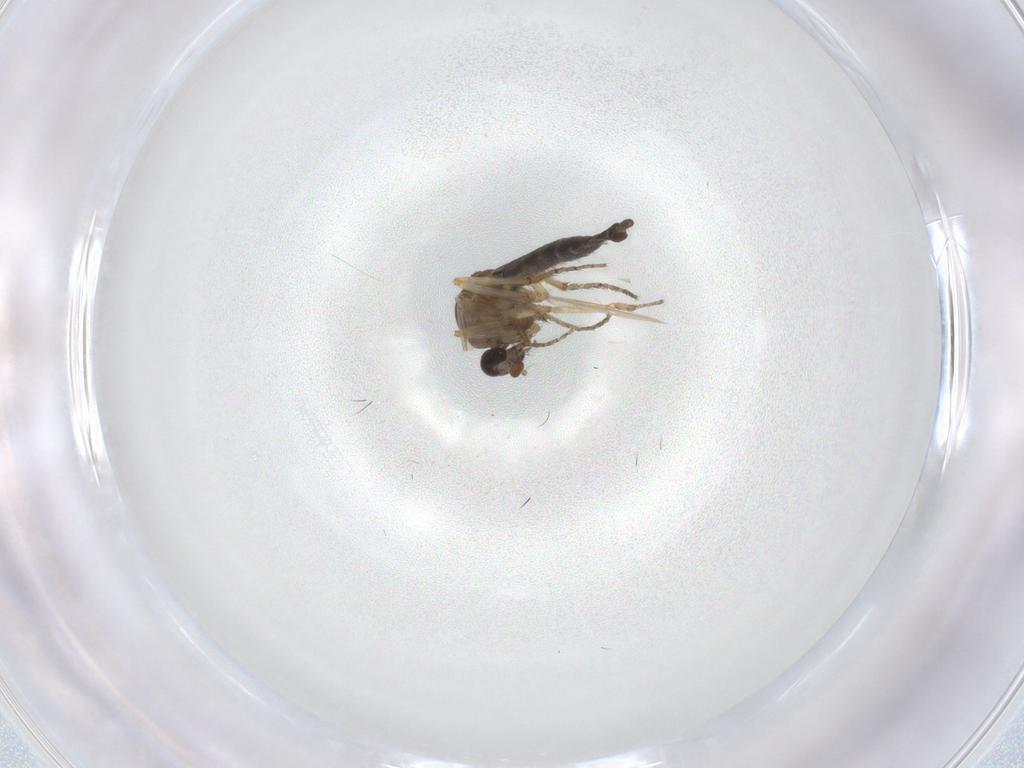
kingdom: Animalia
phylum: Arthropoda
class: Insecta
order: Diptera
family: Ceratopogonidae
